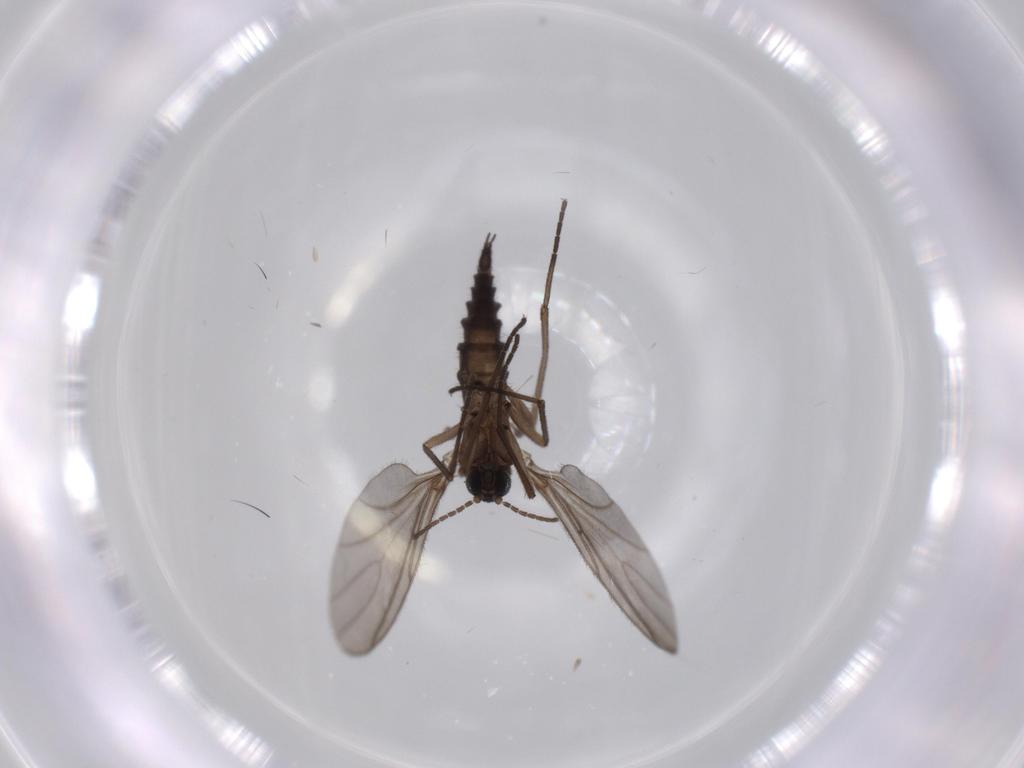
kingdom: Animalia
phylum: Arthropoda
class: Insecta
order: Diptera
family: Sciaridae
